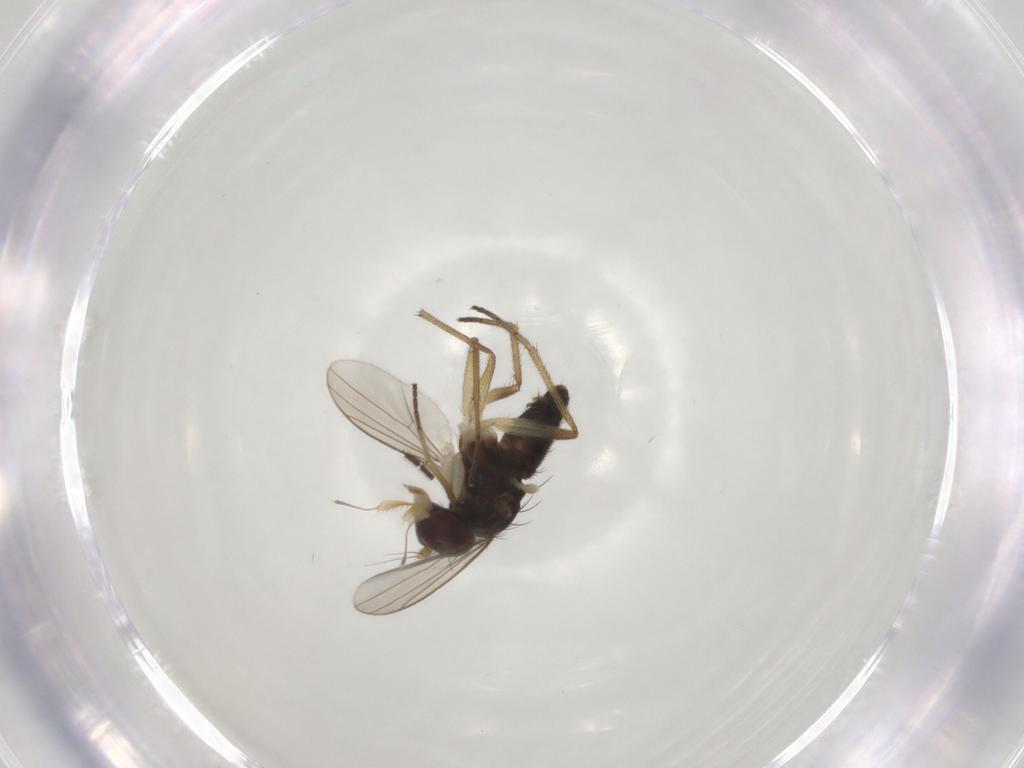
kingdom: Animalia
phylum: Arthropoda
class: Insecta
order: Diptera
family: Dolichopodidae
